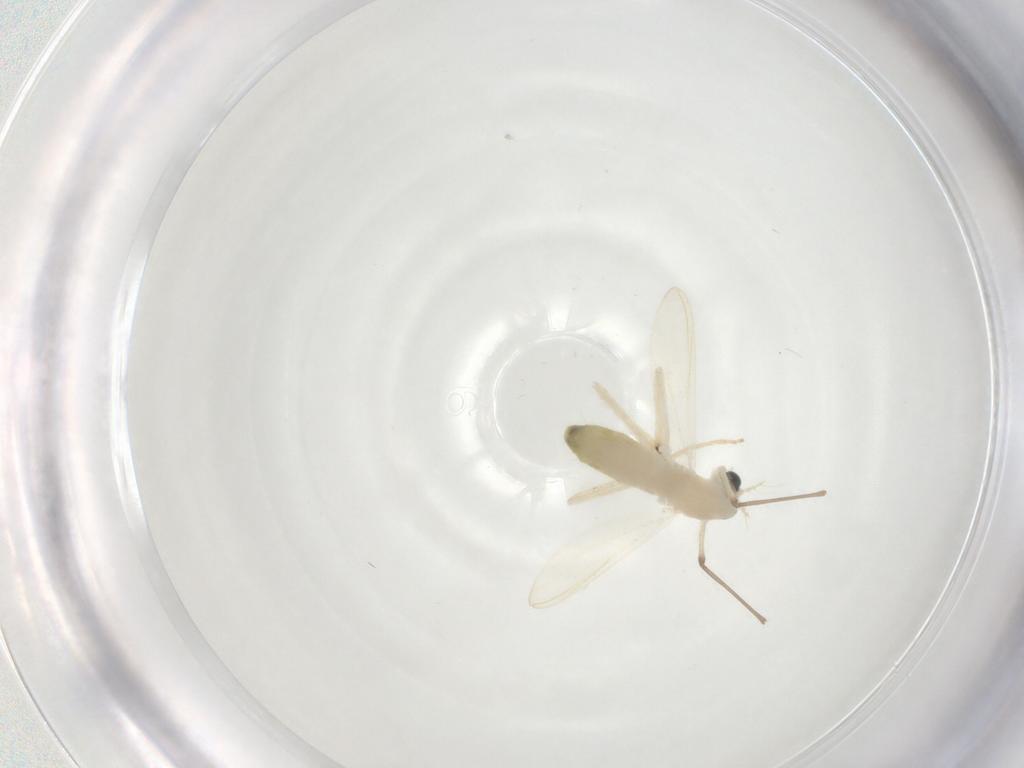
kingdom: Animalia
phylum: Arthropoda
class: Insecta
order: Diptera
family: Chironomidae
